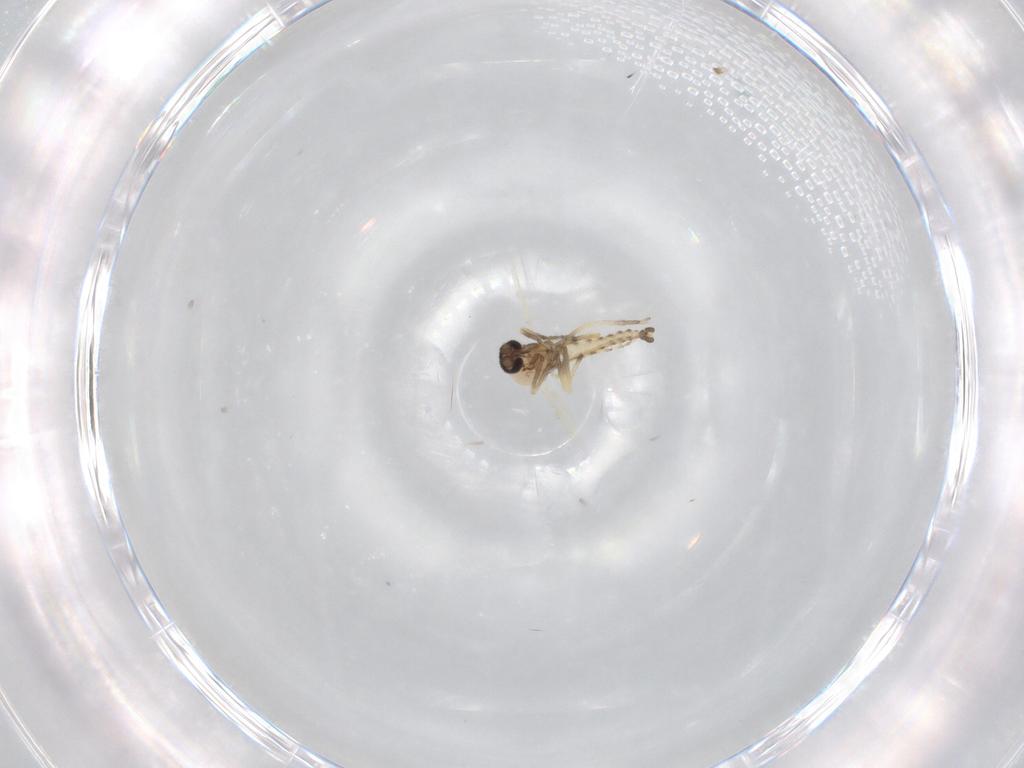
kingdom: Animalia
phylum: Arthropoda
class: Insecta
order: Diptera
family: Ceratopogonidae
